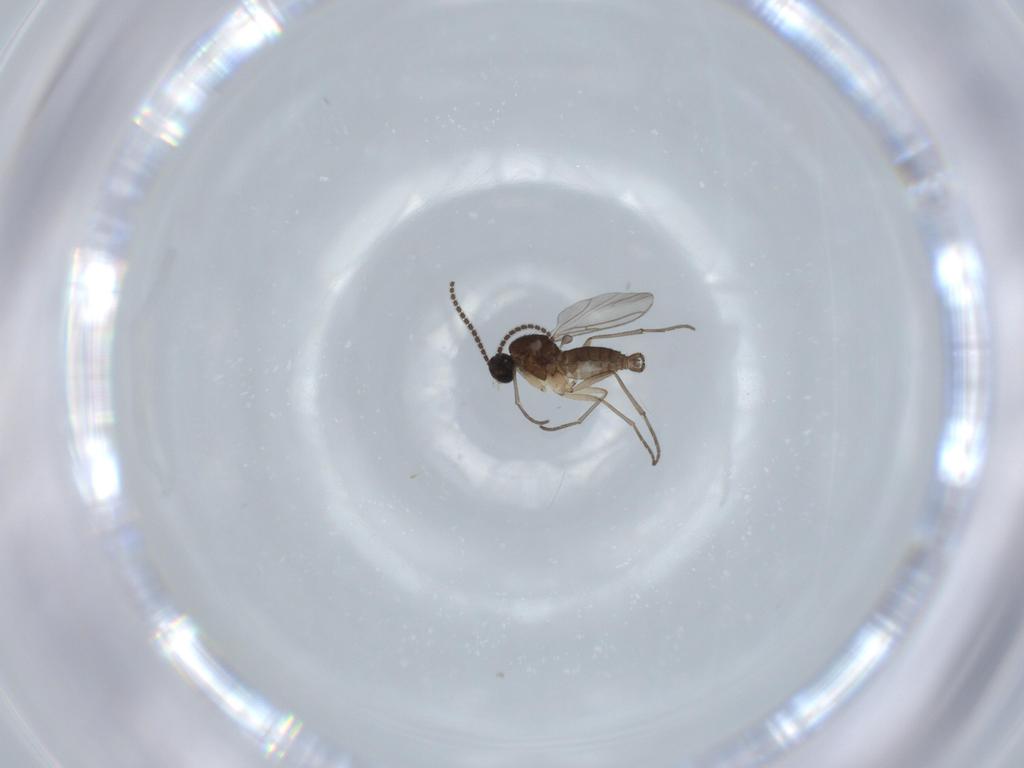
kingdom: Animalia
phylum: Arthropoda
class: Insecta
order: Diptera
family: Sciaridae
